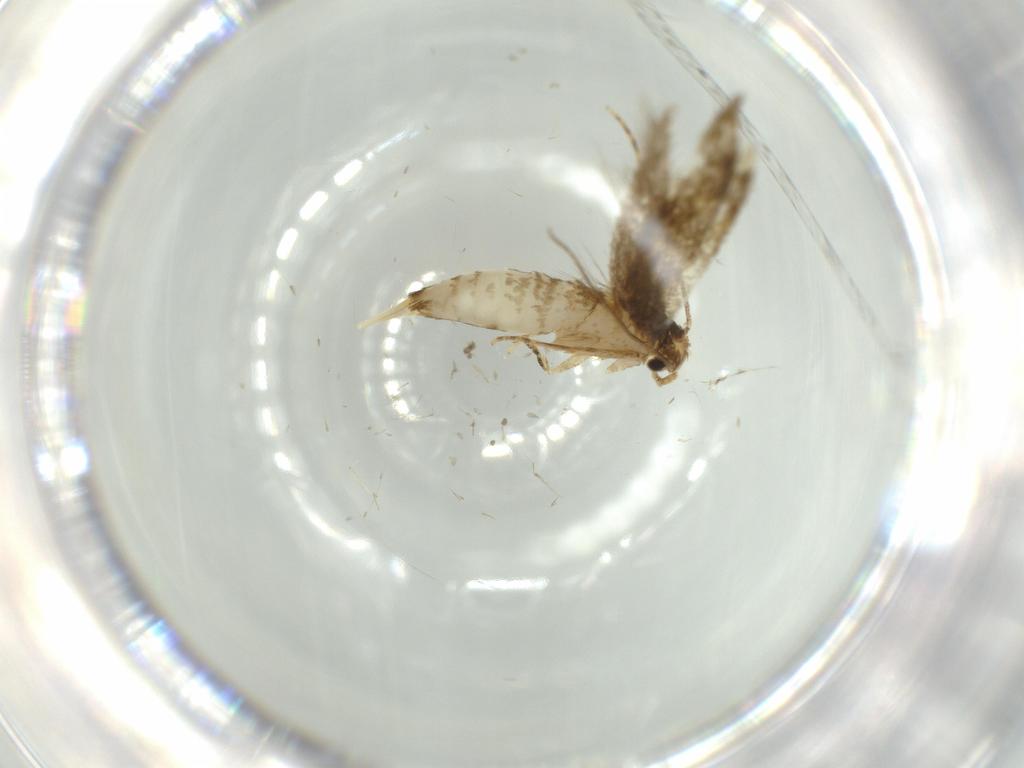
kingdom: Animalia
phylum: Arthropoda
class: Insecta
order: Lepidoptera
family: Tineidae
